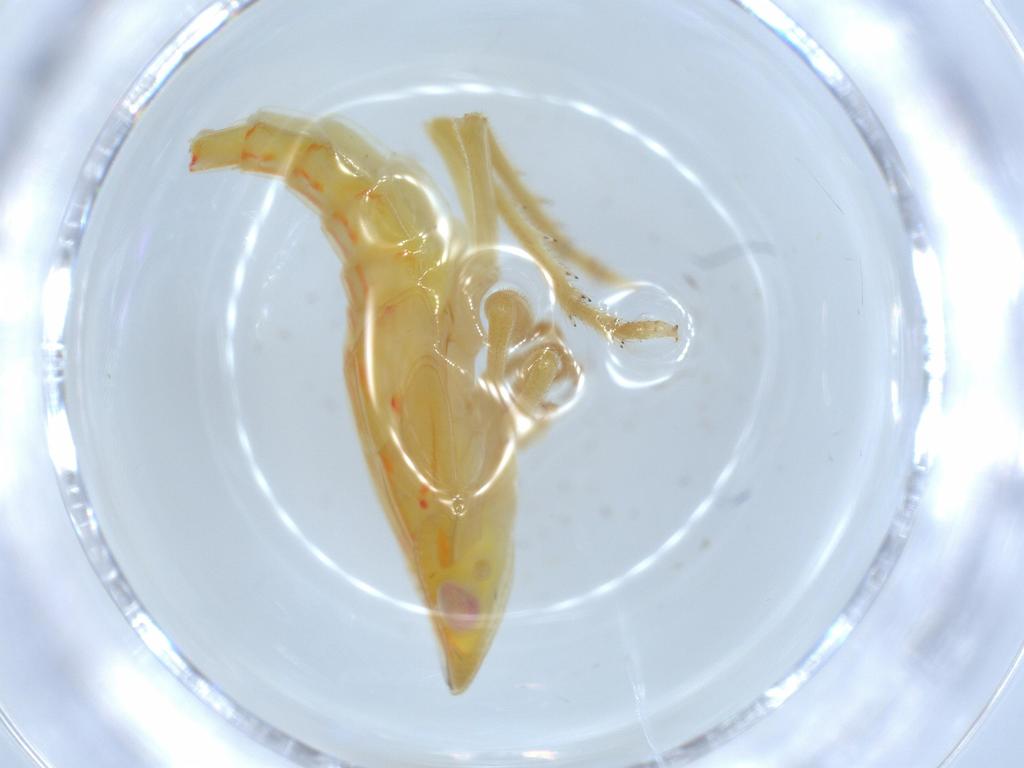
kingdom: Animalia
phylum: Arthropoda
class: Insecta
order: Hemiptera
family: Tropiduchidae
